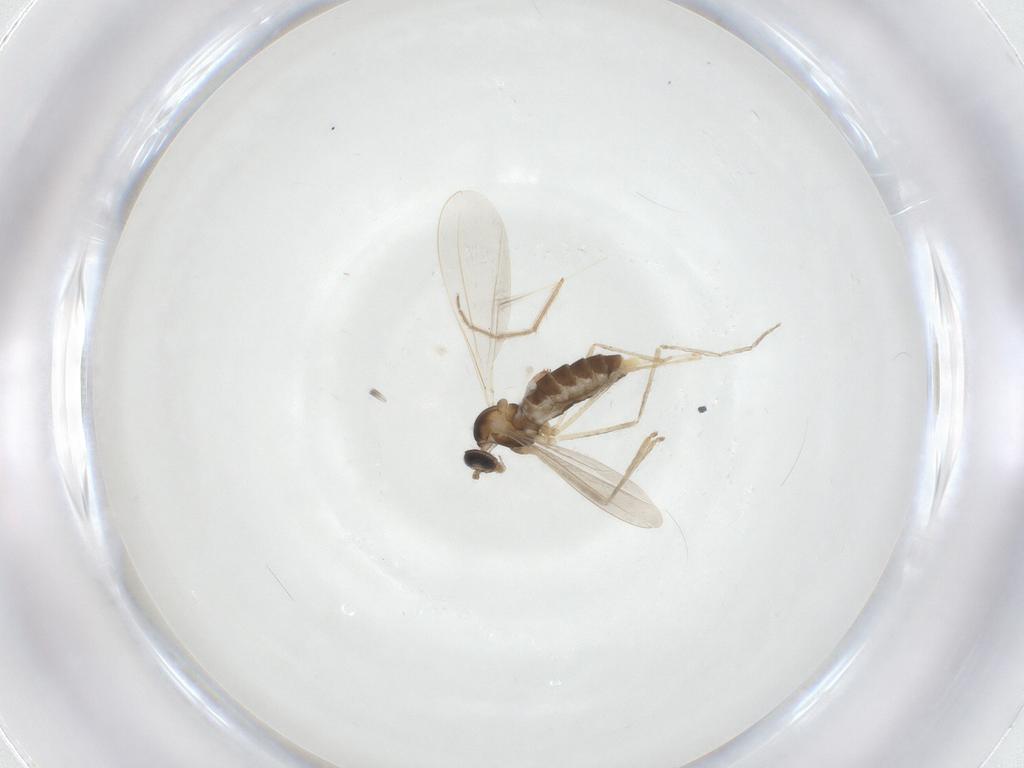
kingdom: Animalia
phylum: Arthropoda
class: Insecta
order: Diptera
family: Cecidomyiidae
